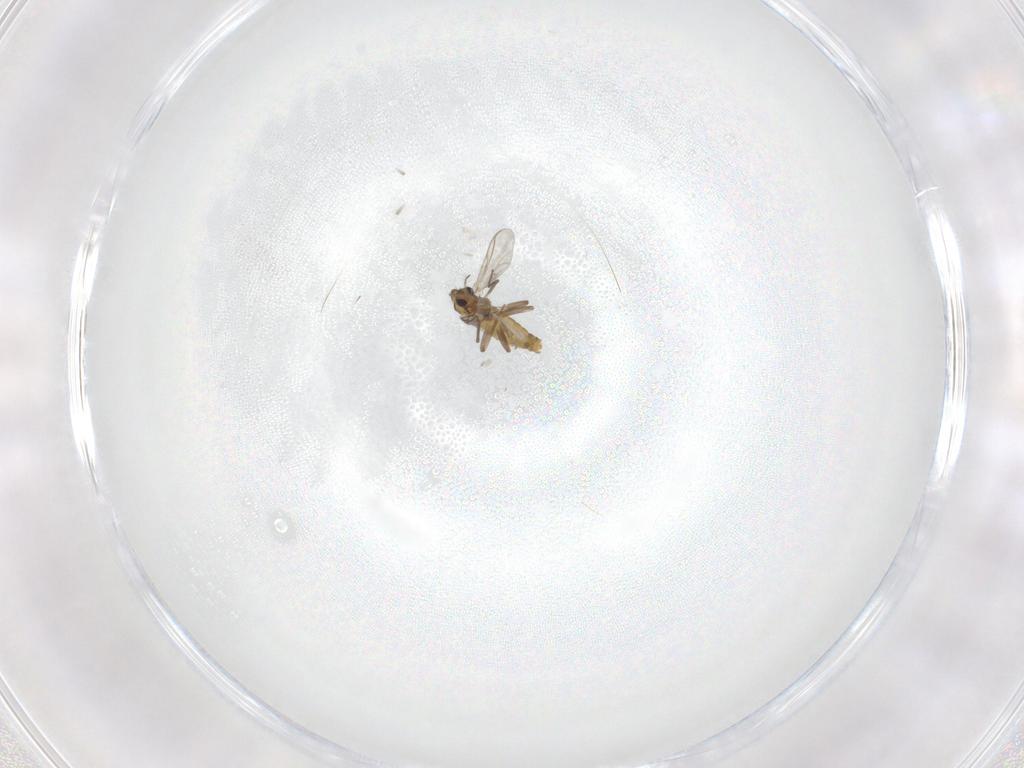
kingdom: Animalia
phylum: Arthropoda
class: Insecta
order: Diptera
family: Chironomidae
